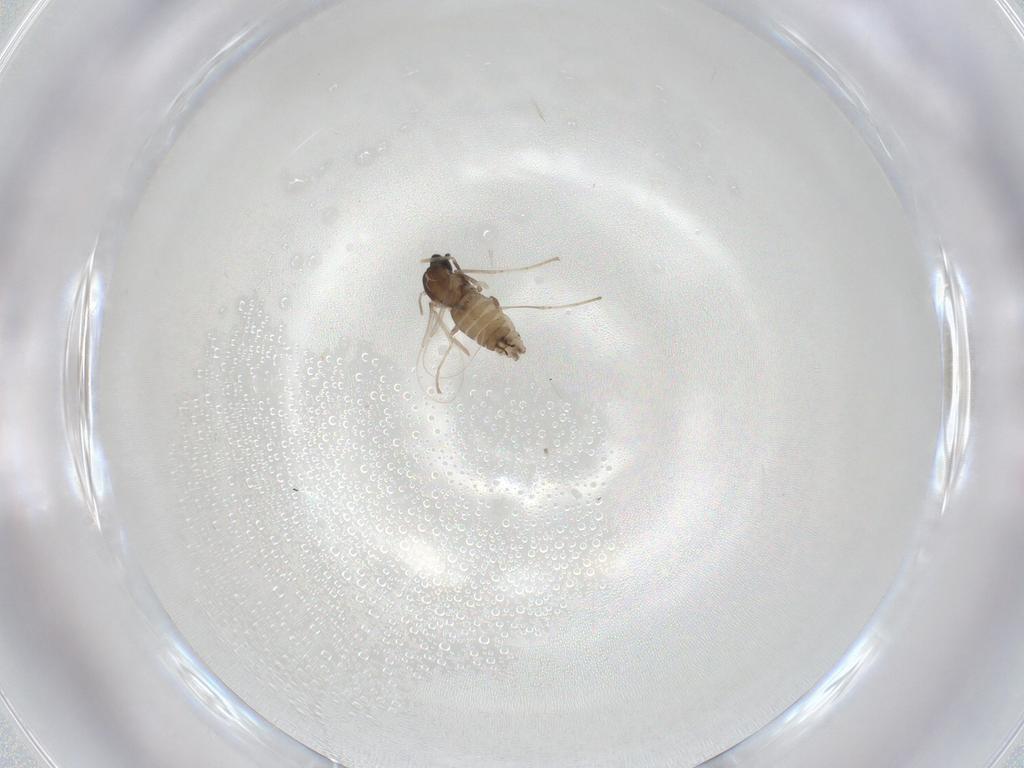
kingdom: Animalia
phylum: Arthropoda
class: Insecta
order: Diptera
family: Cecidomyiidae
